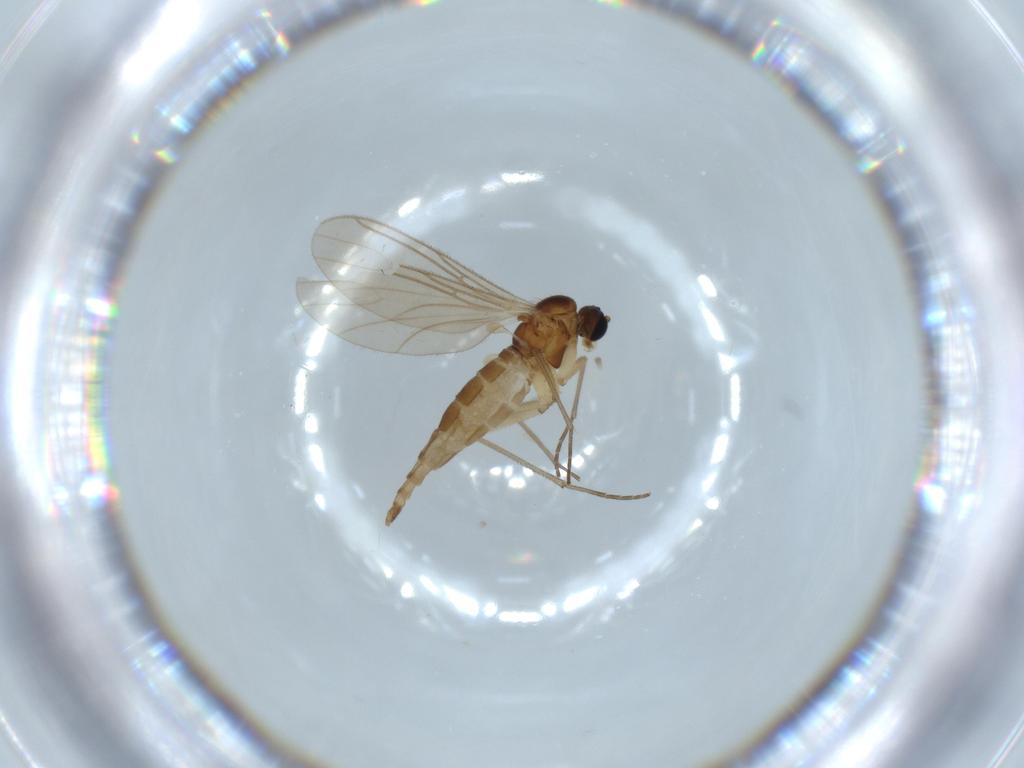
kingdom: Animalia
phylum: Arthropoda
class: Insecta
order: Diptera
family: Sciaridae
